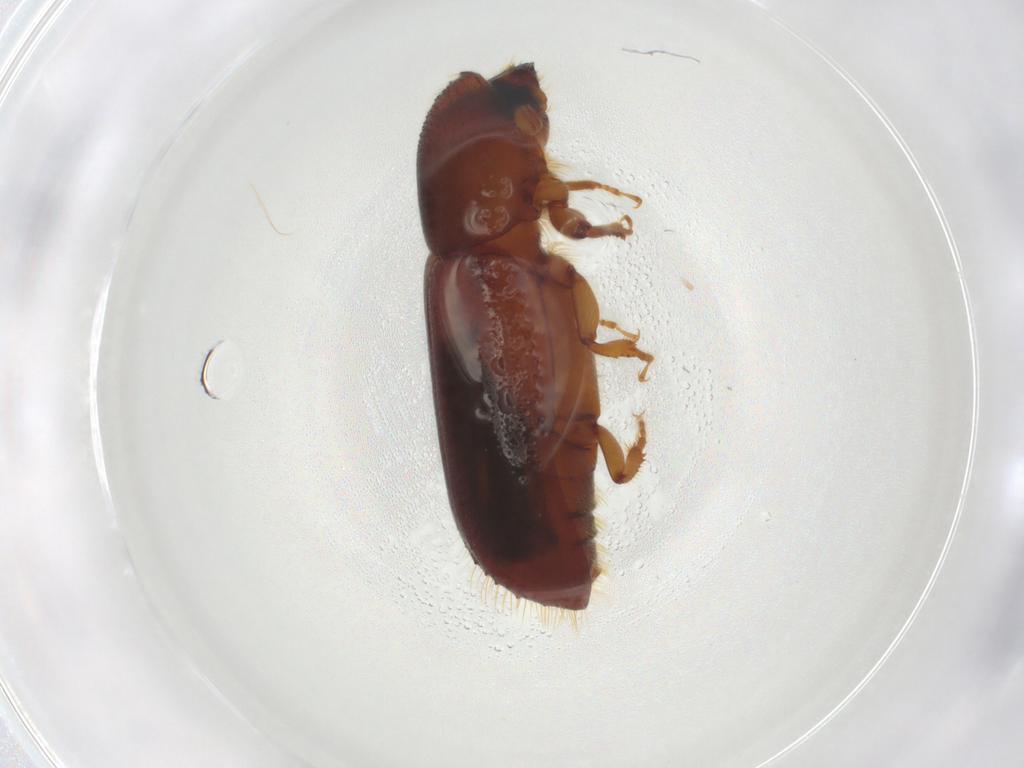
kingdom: Animalia
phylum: Arthropoda
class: Insecta
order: Coleoptera
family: Curculionidae
